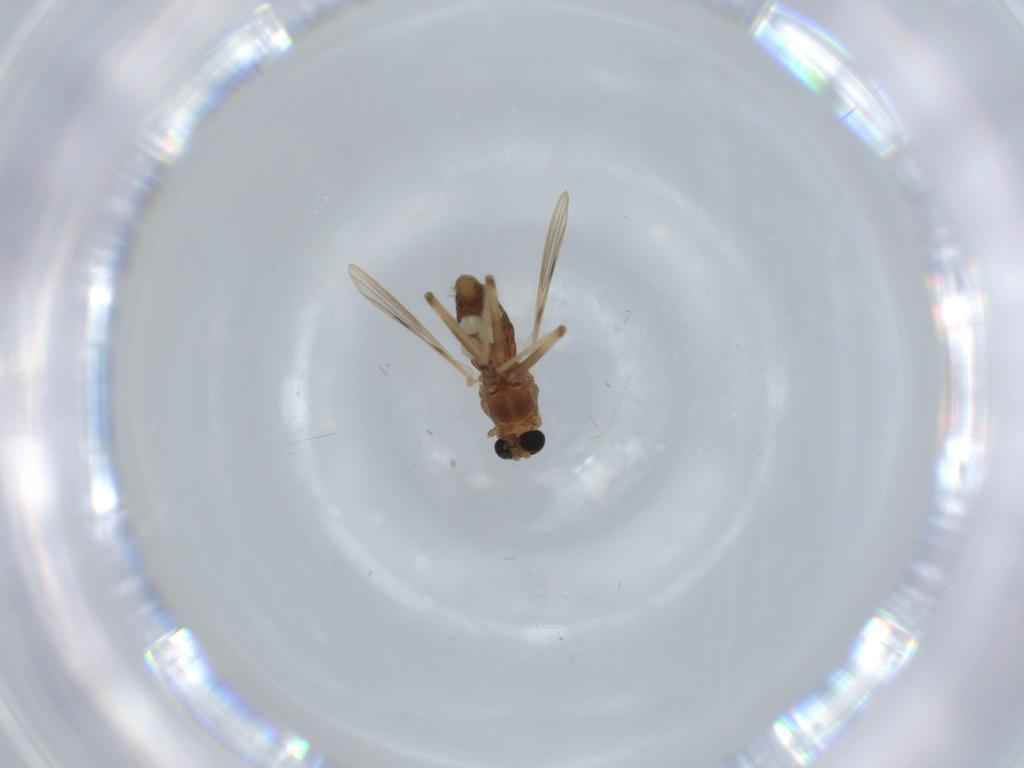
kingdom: Animalia
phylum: Arthropoda
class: Insecta
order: Diptera
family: Chironomidae
